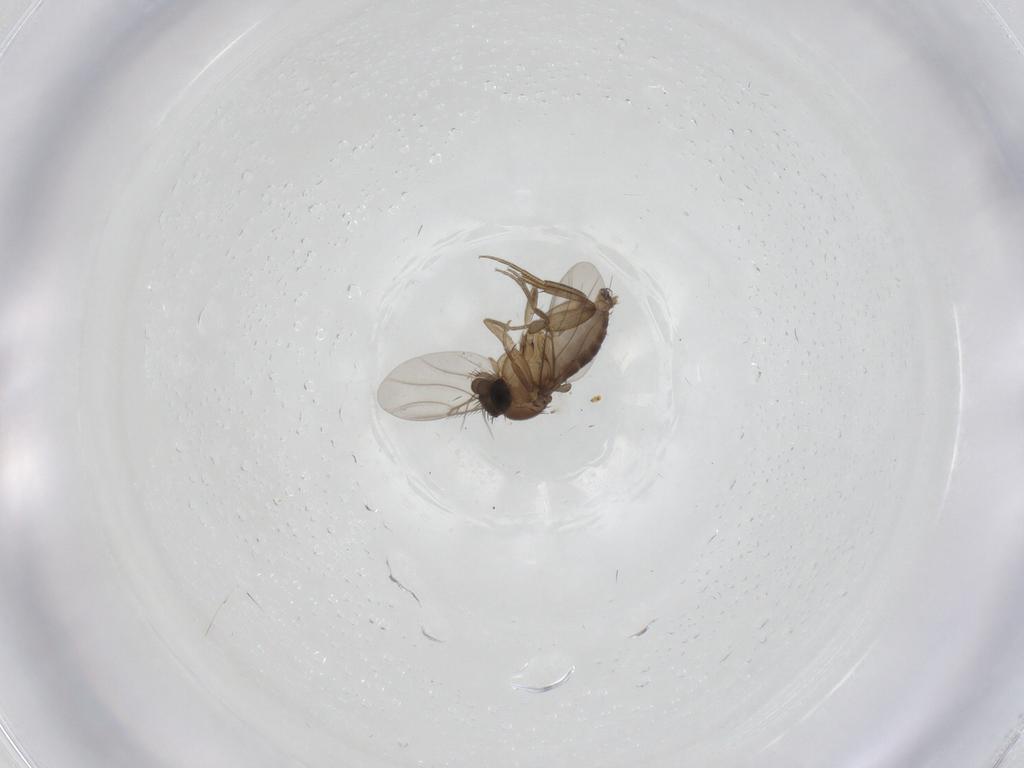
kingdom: Animalia
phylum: Arthropoda
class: Insecta
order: Diptera
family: Phoridae
